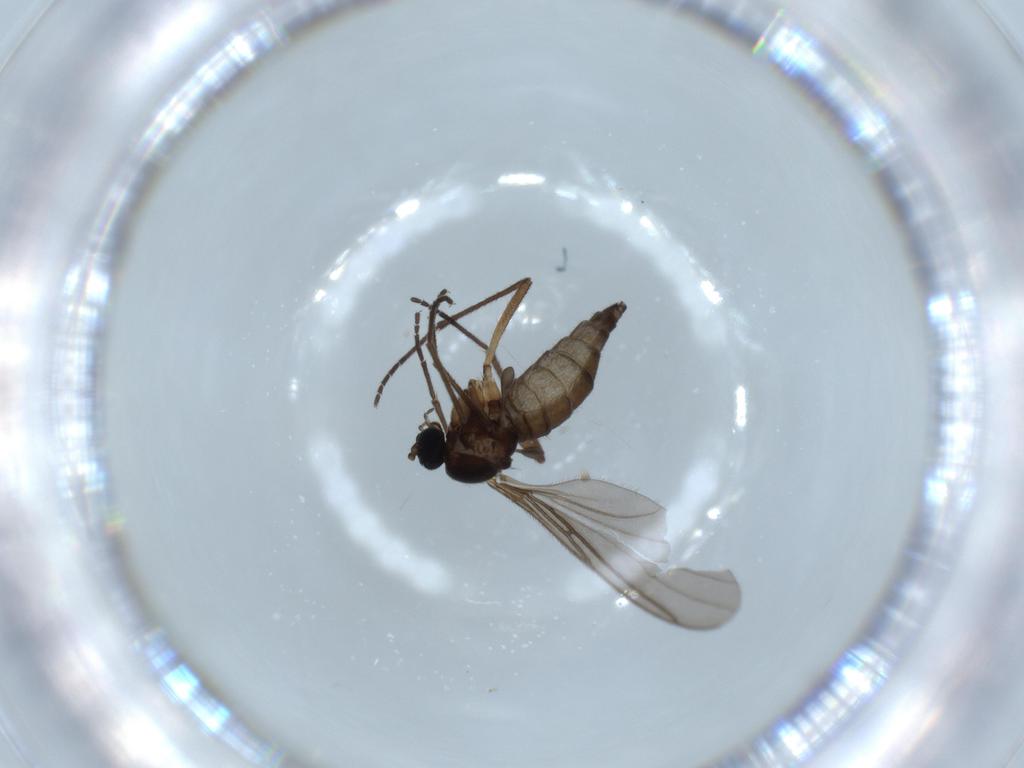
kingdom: Animalia
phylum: Arthropoda
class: Insecta
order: Diptera
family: Sciaridae
